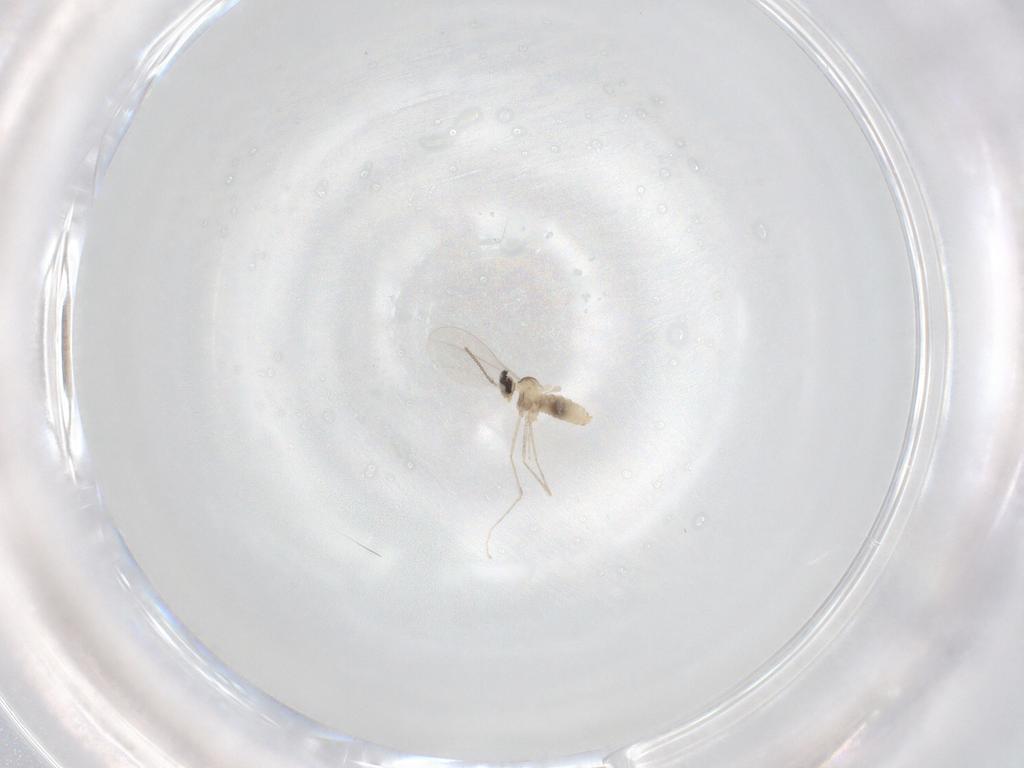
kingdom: Animalia
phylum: Arthropoda
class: Insecta
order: Diptera
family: Cecidomyiidae
